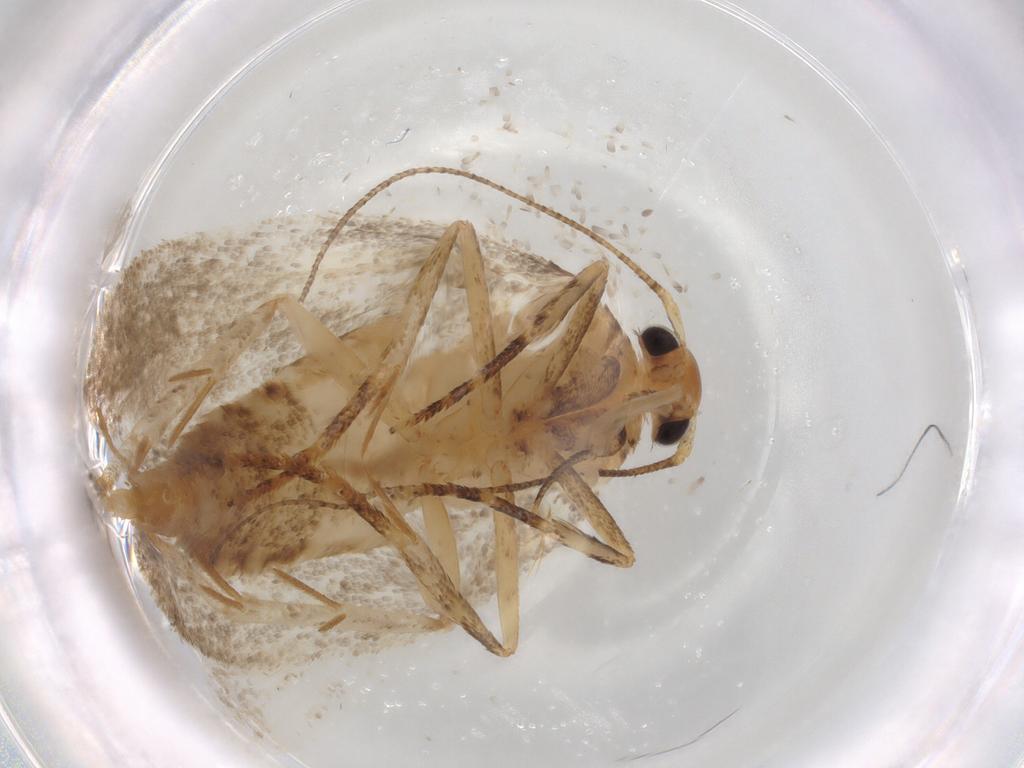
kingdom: Animalia
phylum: Arthropoda
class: Insecta
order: Lepidoptera
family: Oecophoridae
